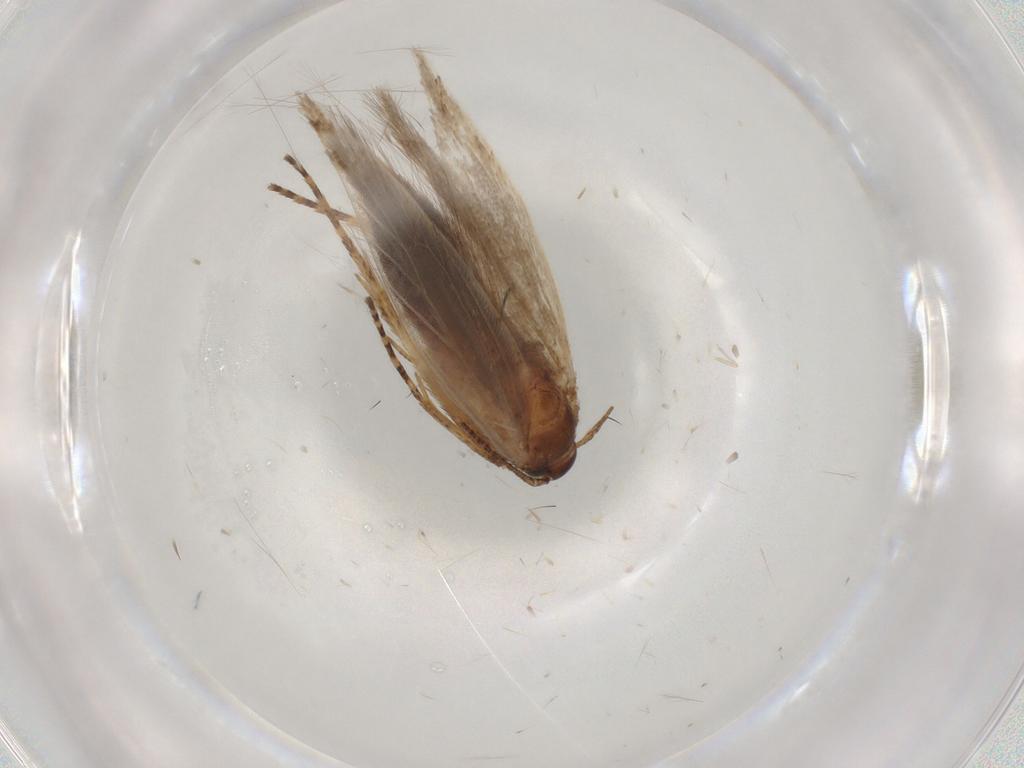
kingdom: Animalia
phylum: Arthropoda
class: Insecta
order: Lepidoptera
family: Gelechiidae
